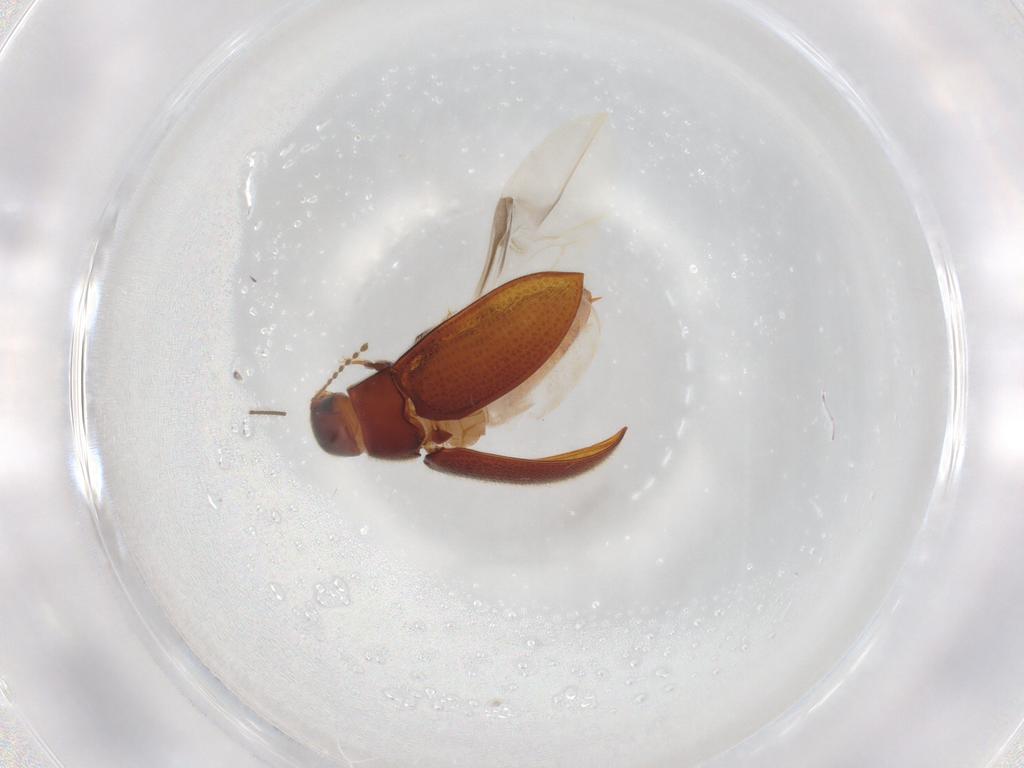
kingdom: Animalia
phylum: Arthropoda
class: Insecta
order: Coleoptera
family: Limnichidae
